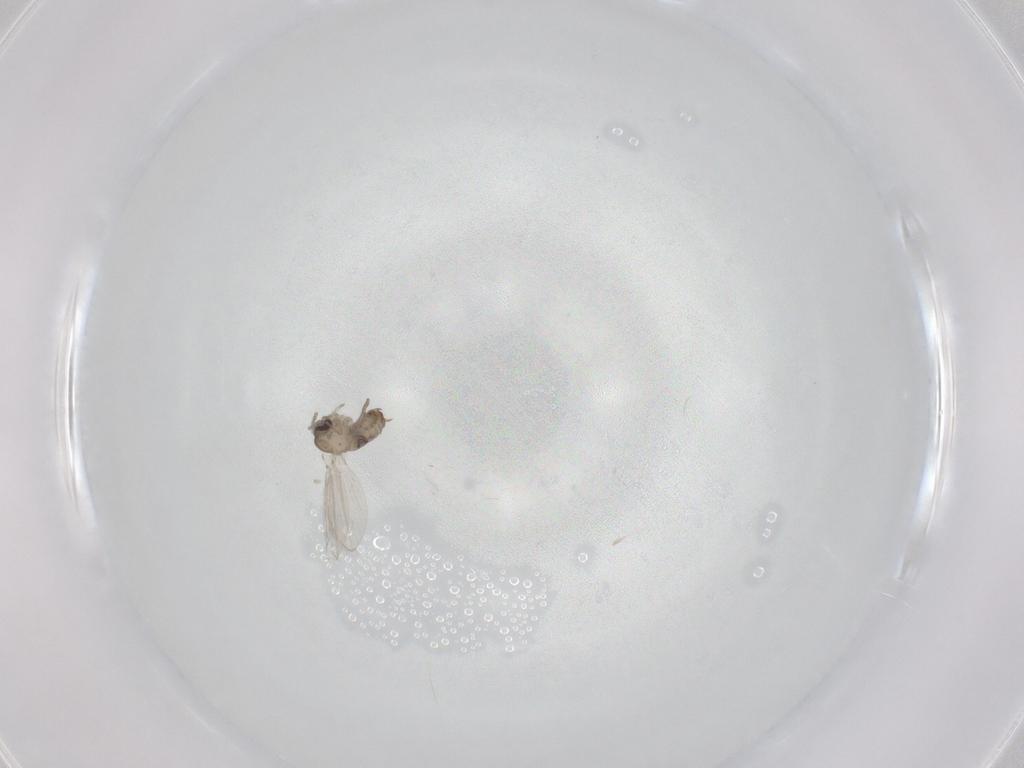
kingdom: Animalia
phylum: Arthropoda
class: Insecta
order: Diptera
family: Psychodidae
